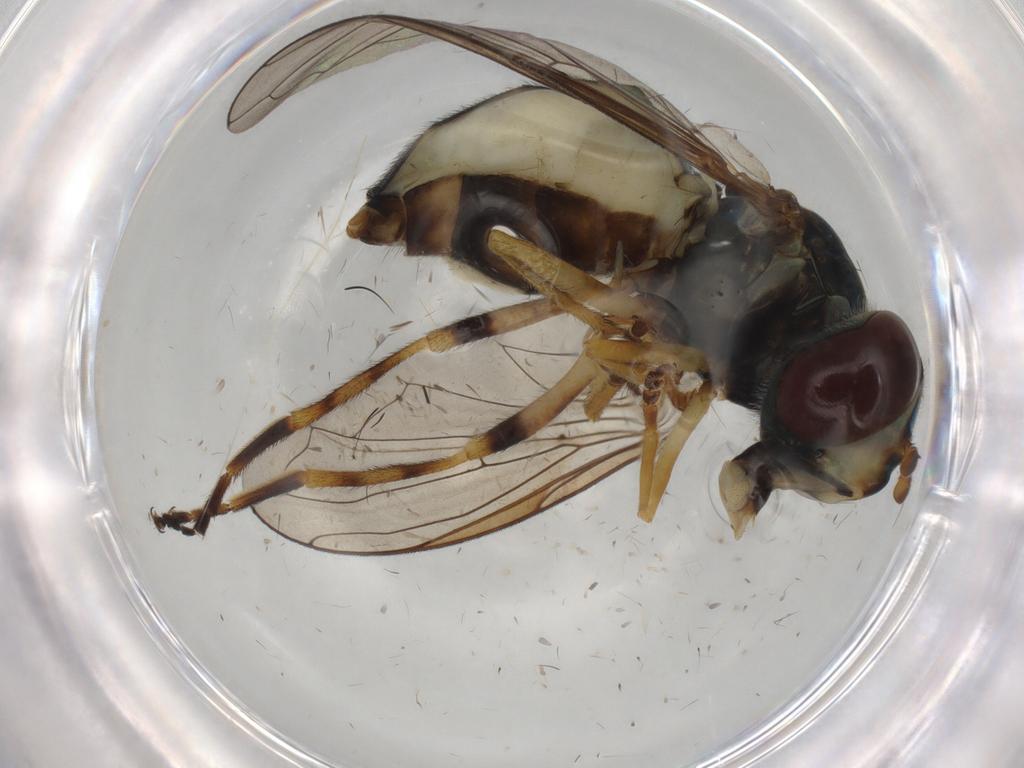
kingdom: Animalia
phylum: Arthropoda
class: Insecta
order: Diptera
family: Syrphidae
